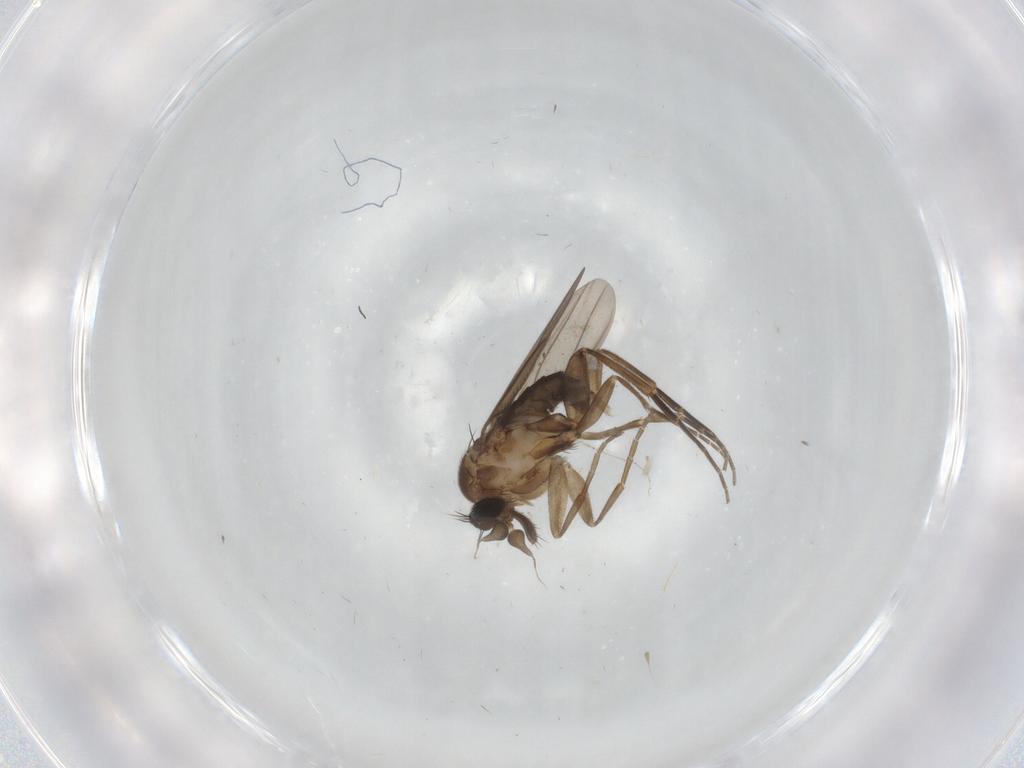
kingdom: Animalia
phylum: Arthropoda
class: Insecta
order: Diptera
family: Phoridae
